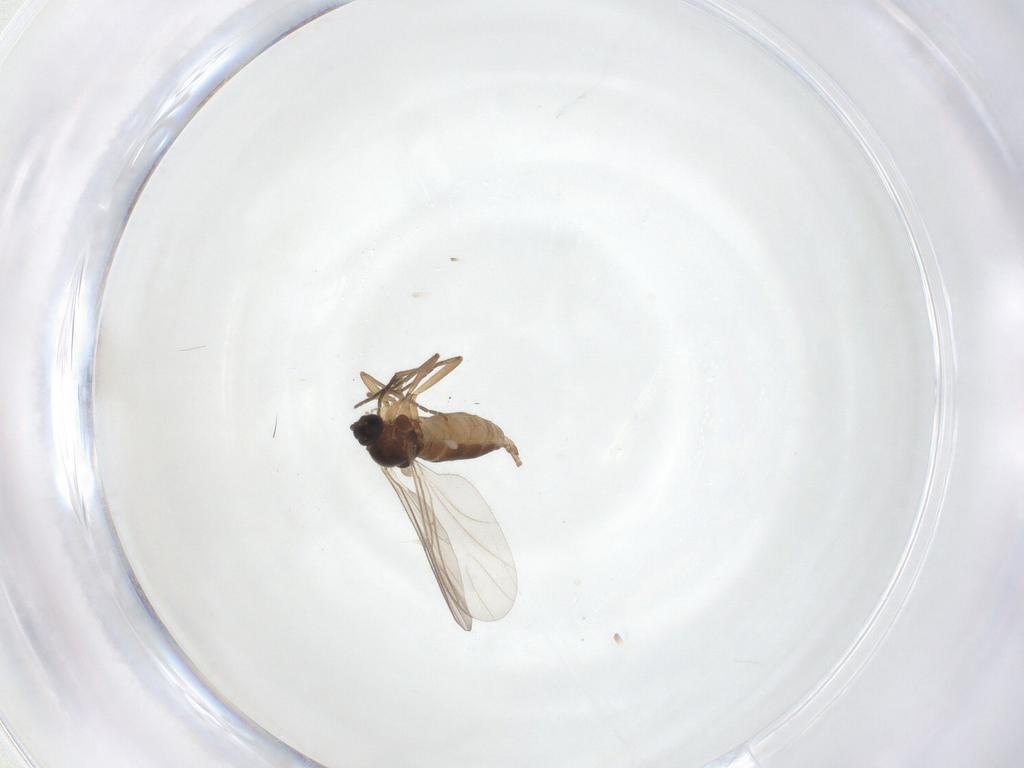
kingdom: Animalia
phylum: Arthropoda
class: Insecta
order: Diptera
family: Sciaridae
